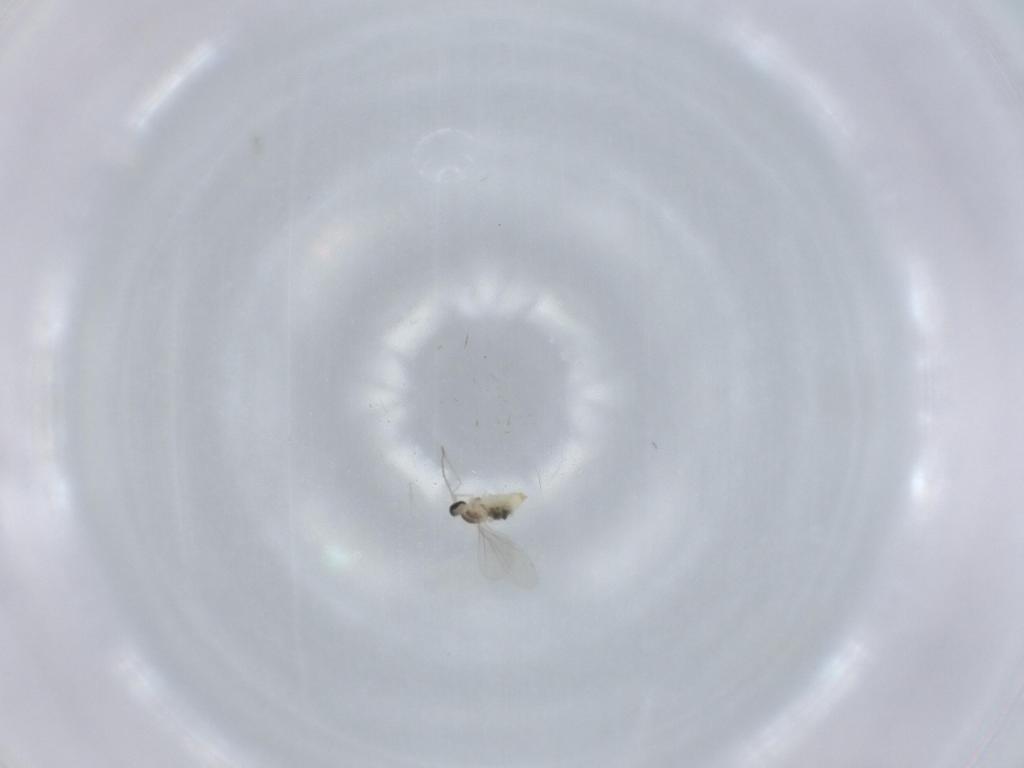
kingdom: Animalia
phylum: Arthropoda
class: Insecta
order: Diptera
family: Cecidomyiidae
